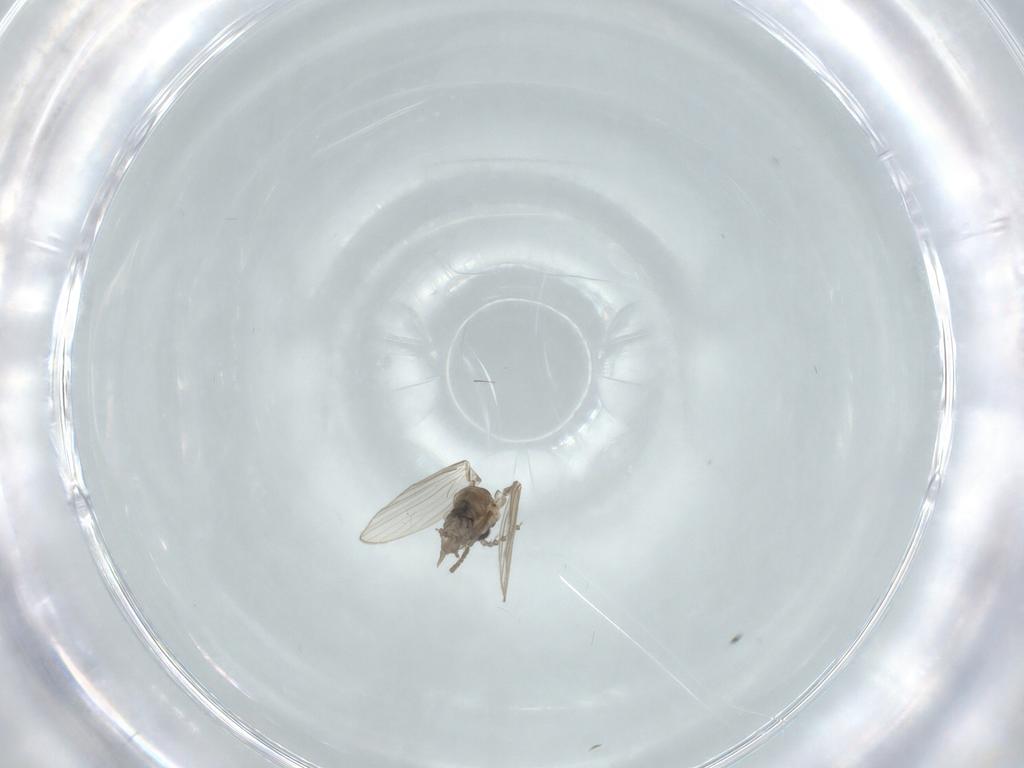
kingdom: Animalia
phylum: Arthropoda
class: Insecta
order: Diptera
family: Psychodidae
